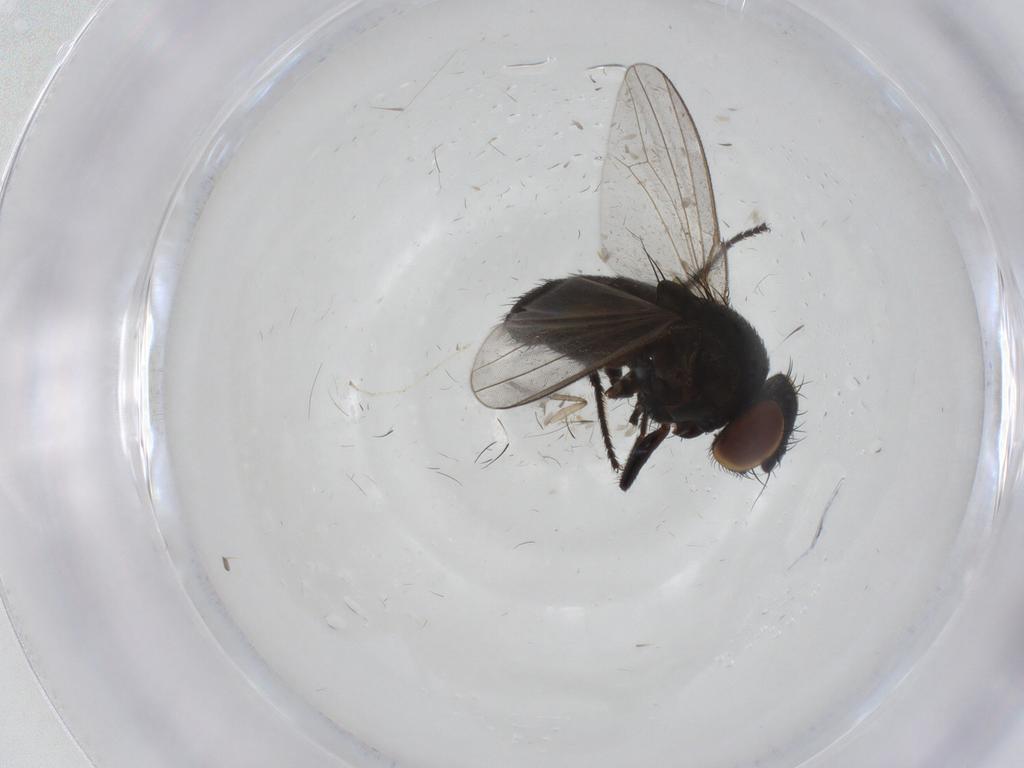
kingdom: Animalia
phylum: Arthropoda
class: Insecta
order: Diptera
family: Milichiidae
